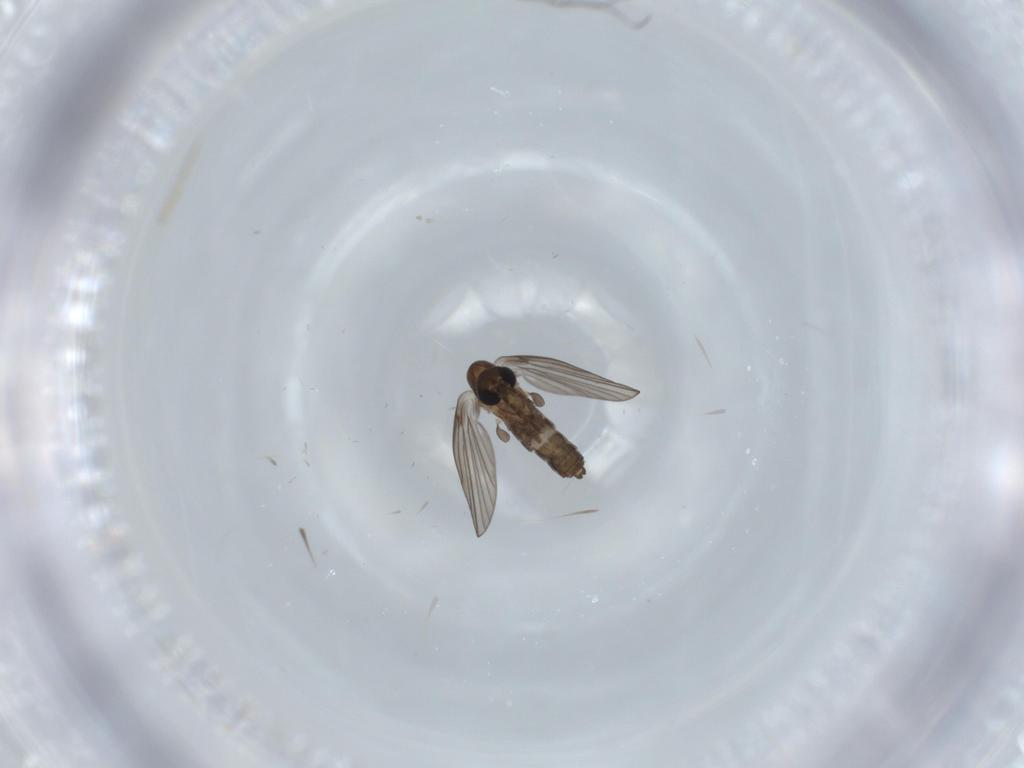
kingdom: Animalia
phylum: Arthropoda
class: Insecta
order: Diptera
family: Psychodidae
